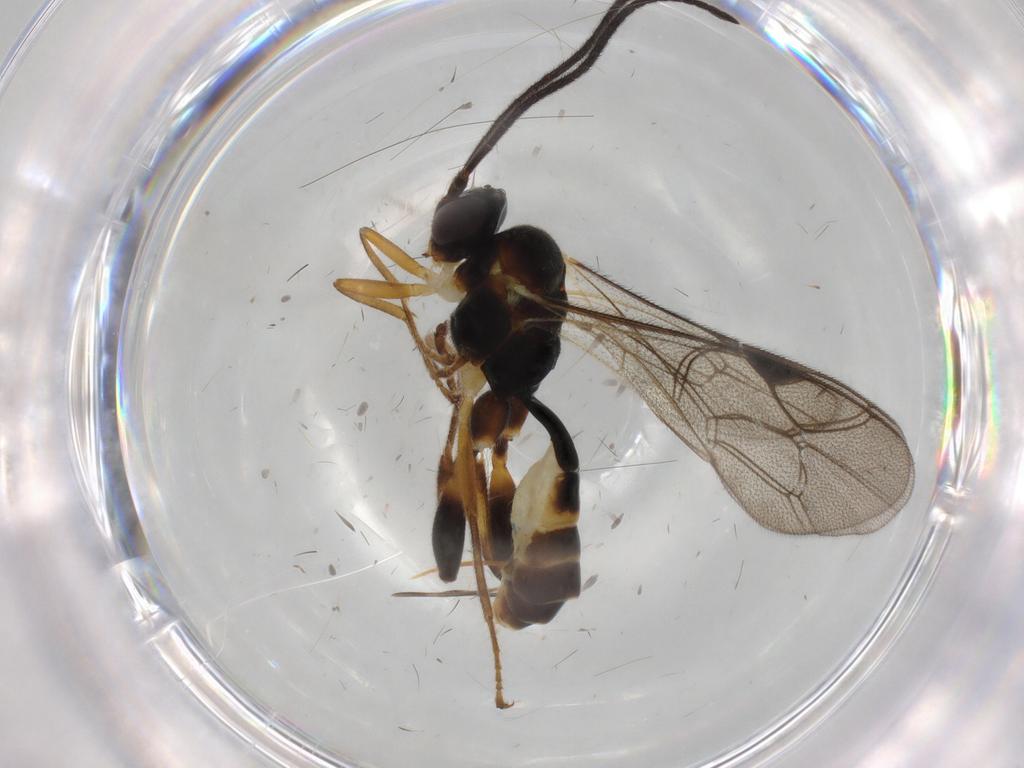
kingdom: Animalia
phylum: Arthropoda
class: Insecta
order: Hymenoptera
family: Ichneumonidae
